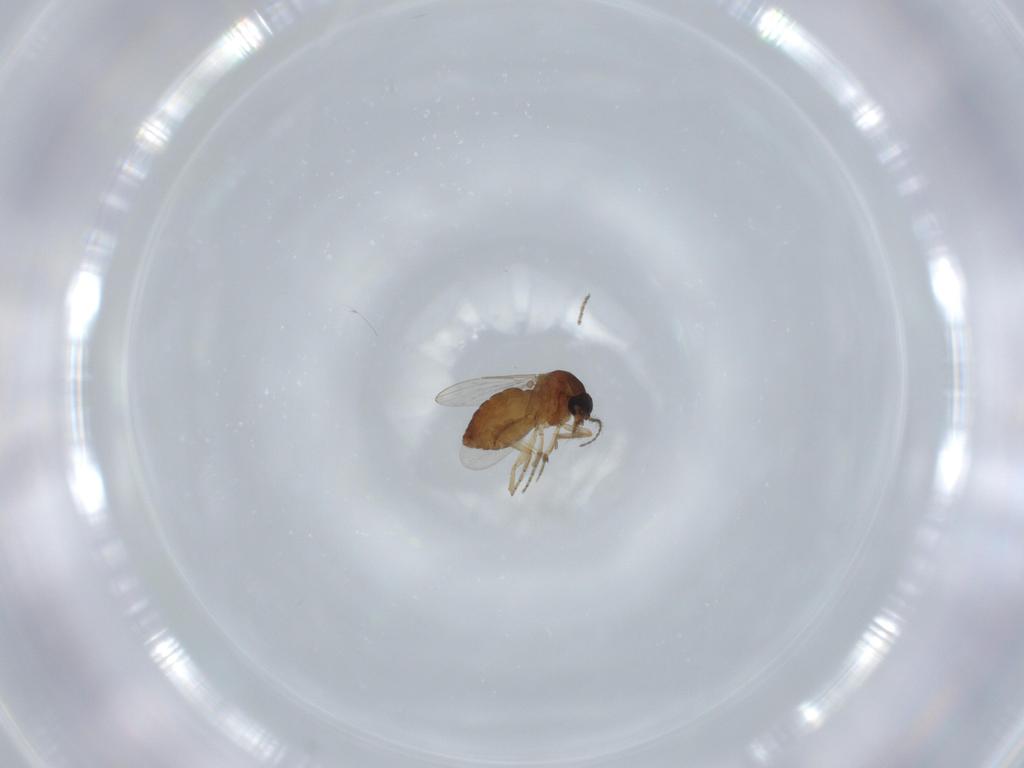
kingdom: Animalia
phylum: Arthropoda
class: Insecta
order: Diptera
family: Ceratopogonidae
